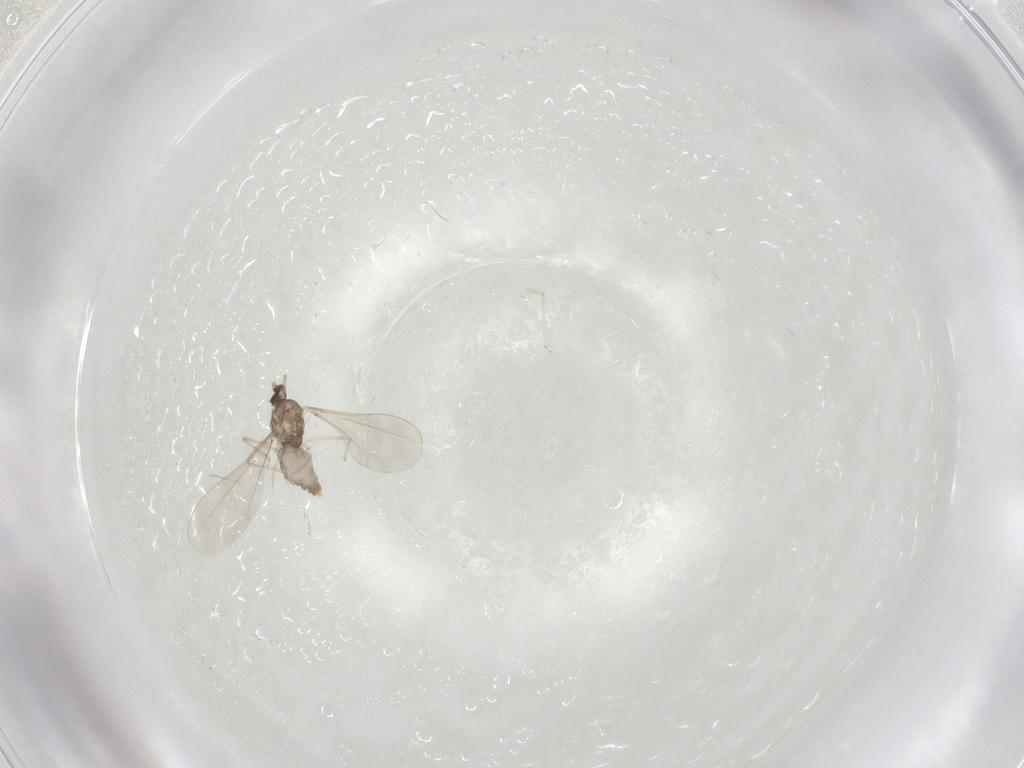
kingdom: Animalia
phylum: Arthropoda
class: Insecta
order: Diptera
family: Cecidomyiidae
